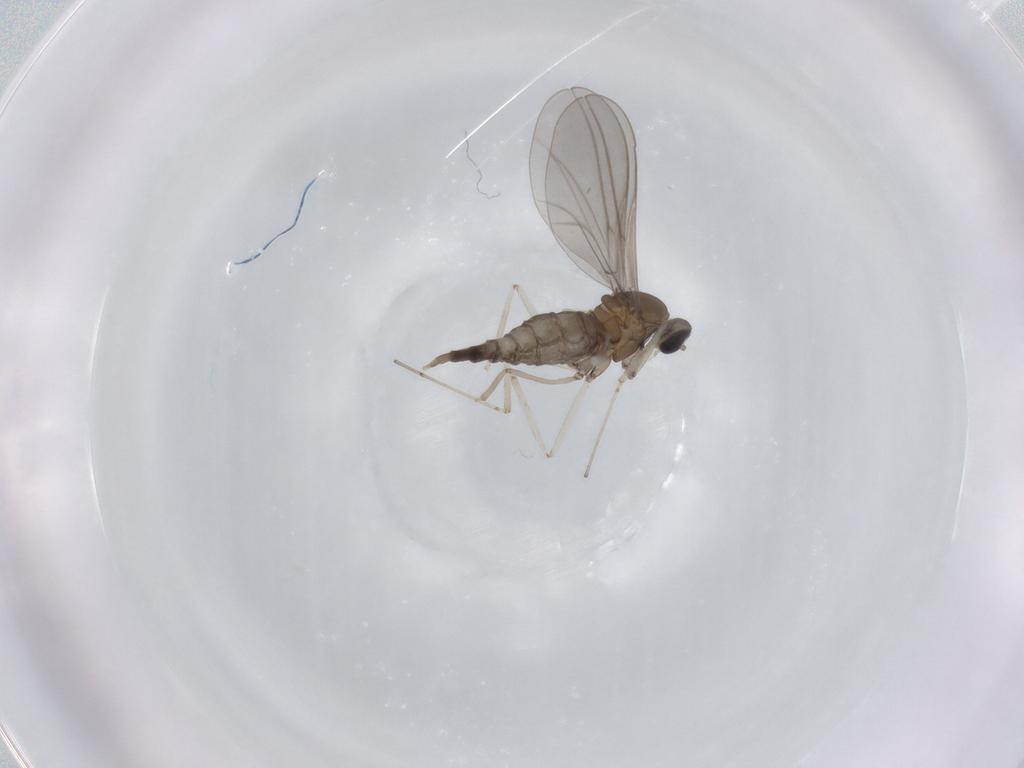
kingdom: Animalia
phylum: Arthropoda
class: Insecta
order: Diptera
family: Cecidomyiidae
